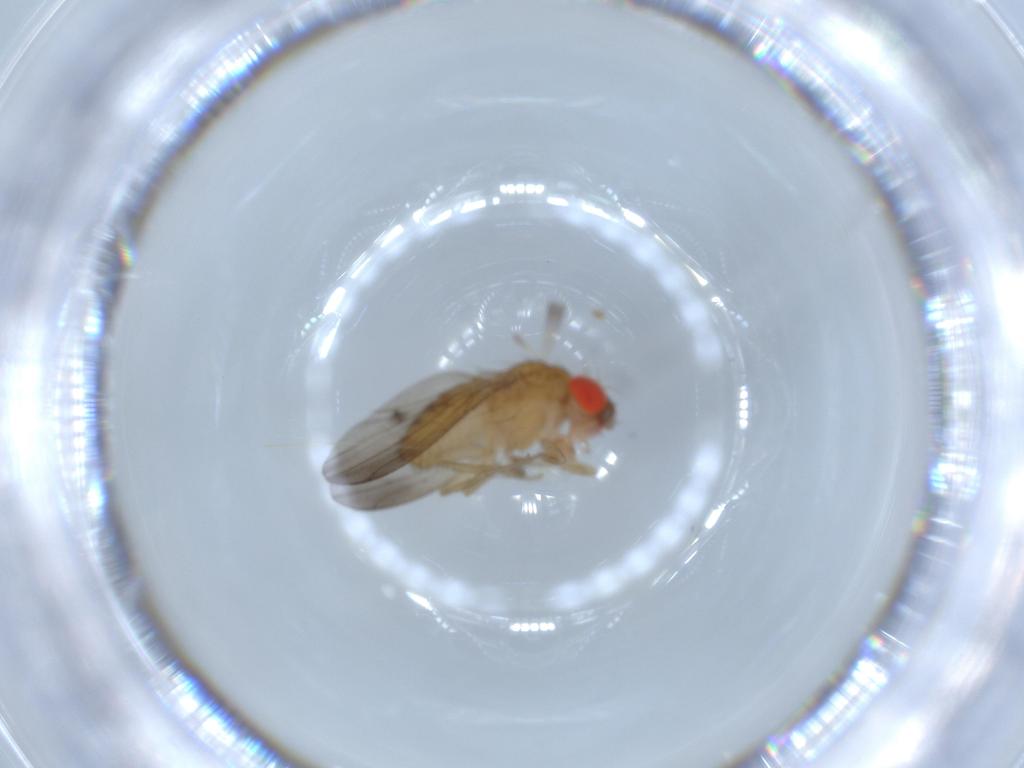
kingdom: Animalia
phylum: Arthropoda
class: Insecta
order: Diptera
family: Drosophilidae
